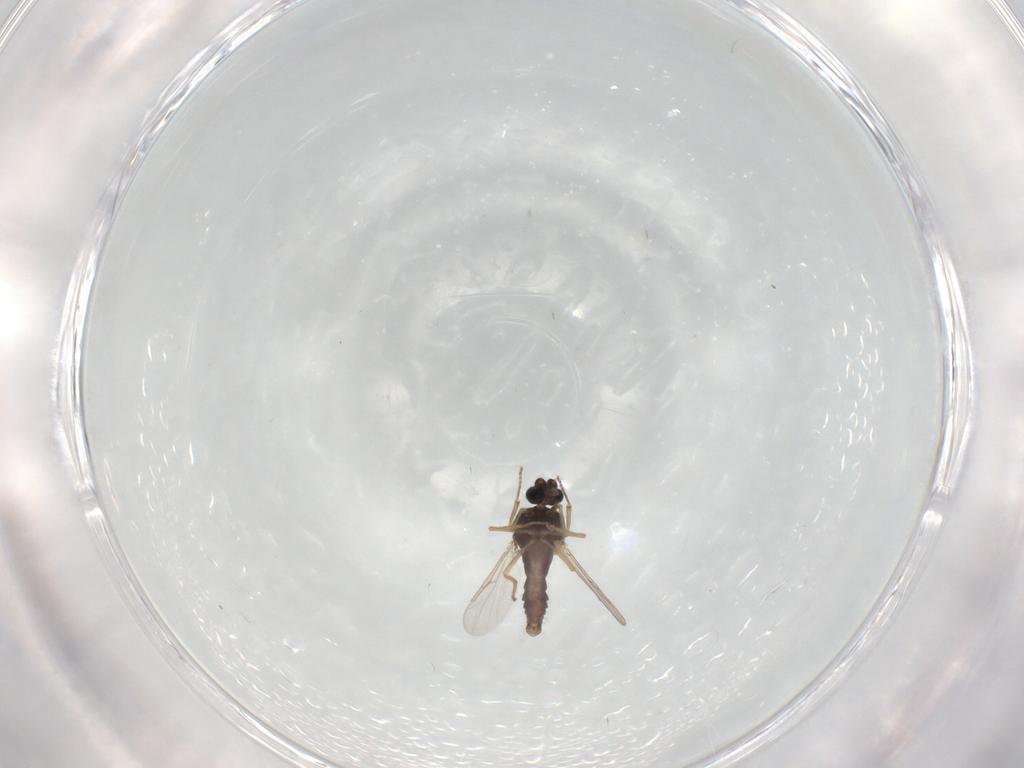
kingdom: Animalia
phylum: Arthropoda
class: Insecta
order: Diptera
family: Ceratopogonidae
